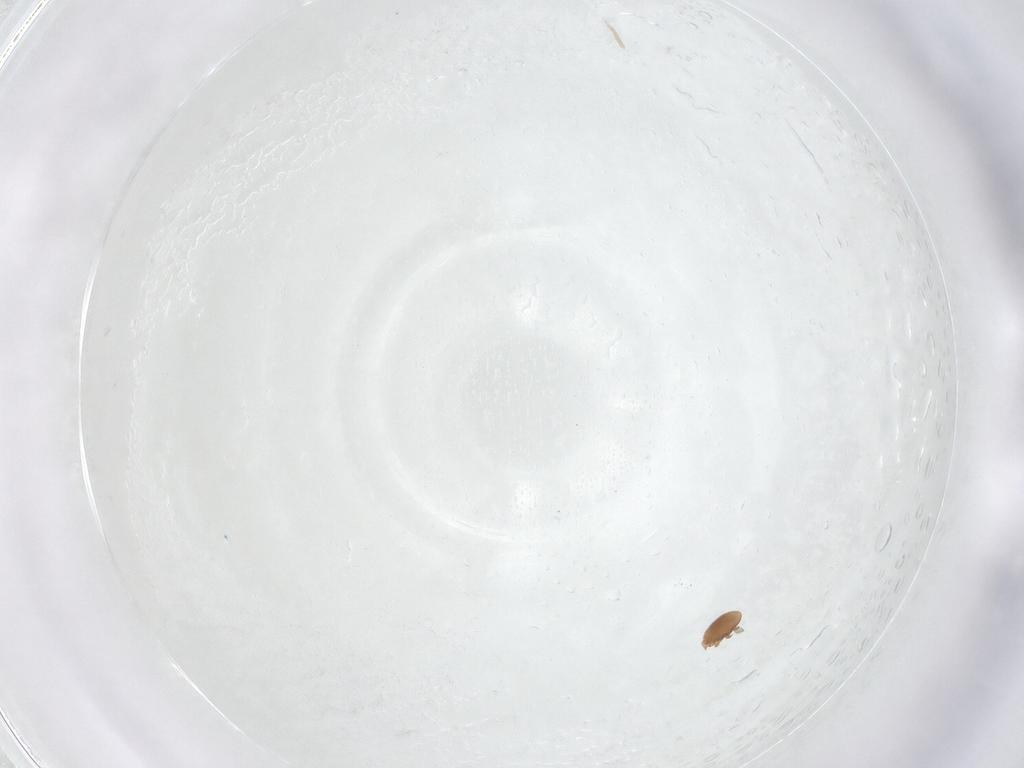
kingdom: Animalia
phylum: Arthropoda
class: Arachnida
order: Mesostigmata
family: Trematuridae
